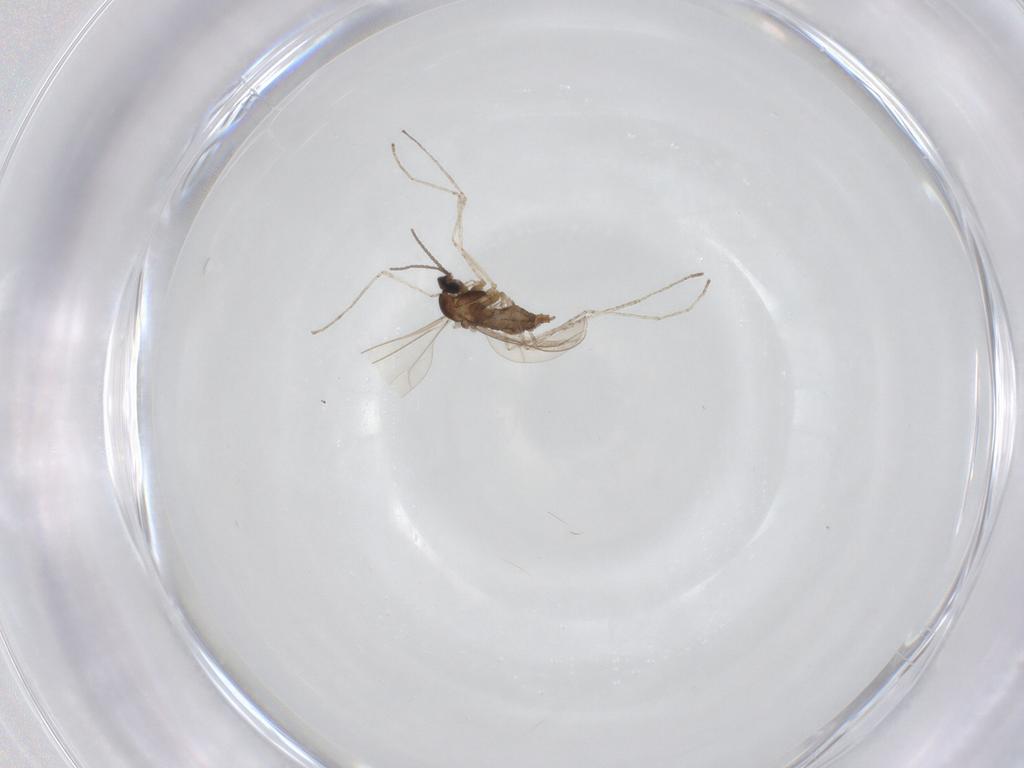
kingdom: Animalia
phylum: Arthropoda
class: Insecta
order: Diptera
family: Cecidomyiidae
